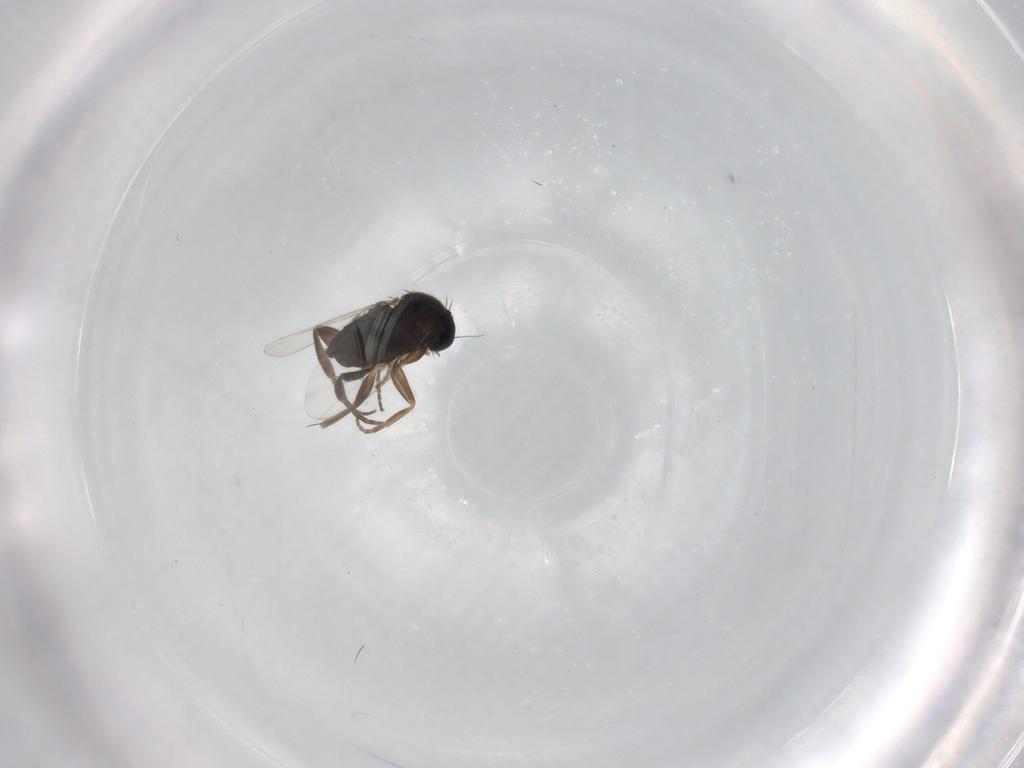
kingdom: Animalia
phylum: Arthropoda
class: Insecta
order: Diptera
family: Phoridae
